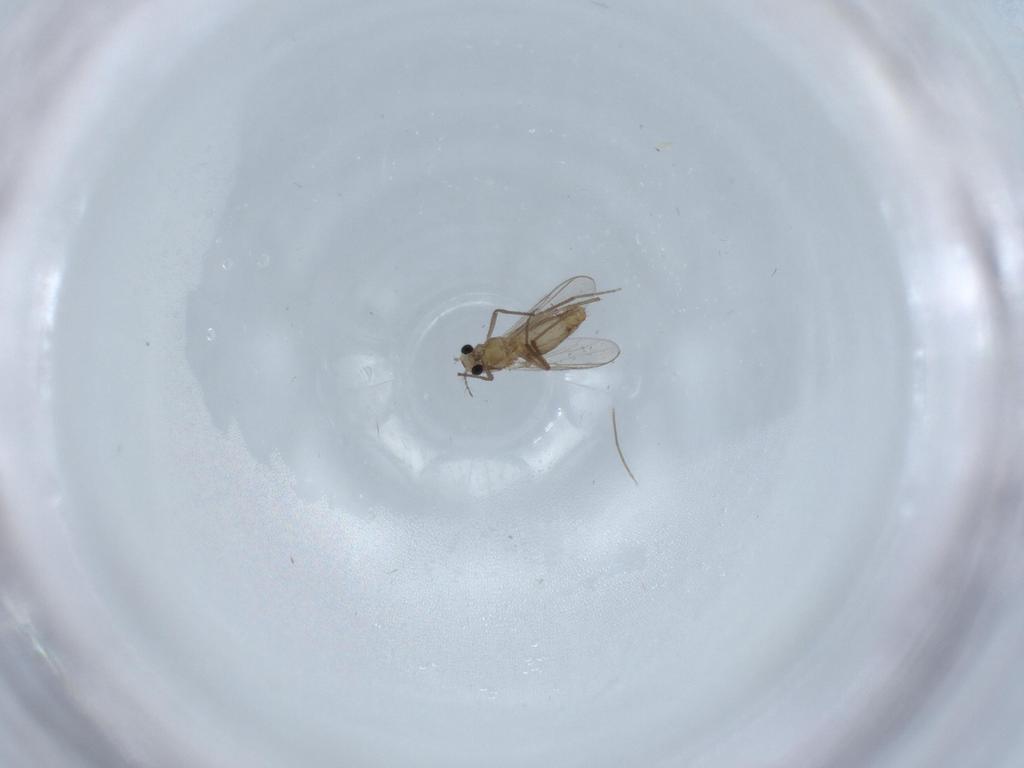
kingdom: Animalia
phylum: Arthropoda
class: Insecta
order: Diptera
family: Chironomidae
